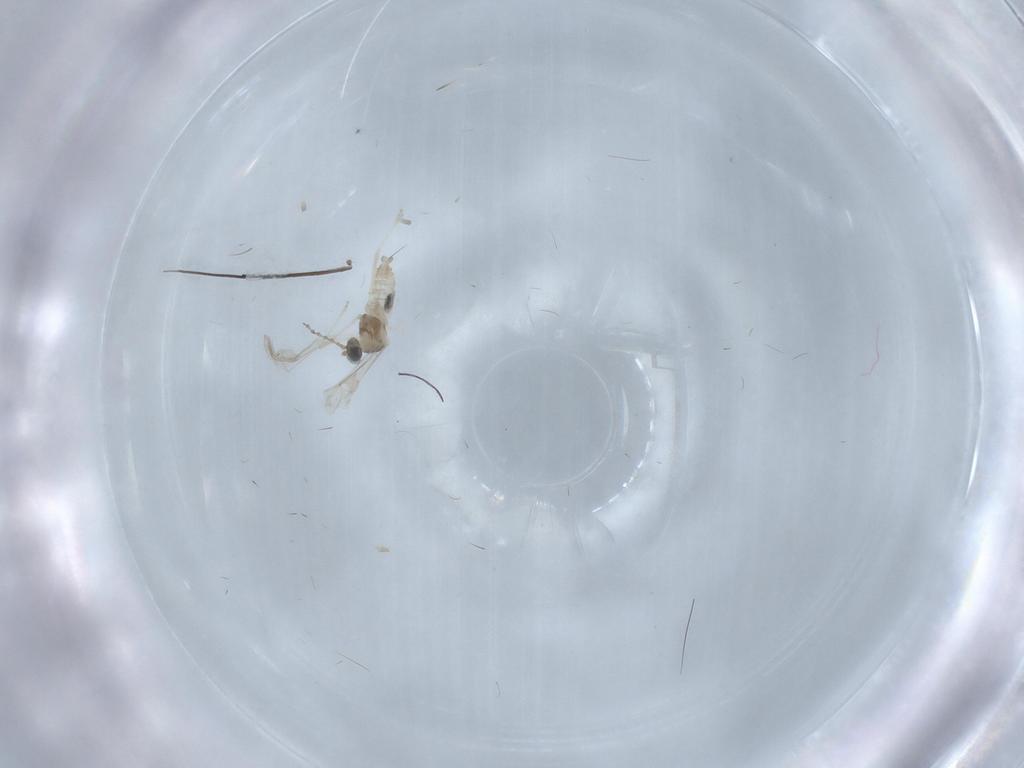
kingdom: Animalia
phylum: Arthropoda
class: Insecta
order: Diptera
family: Cecidomyiidae
